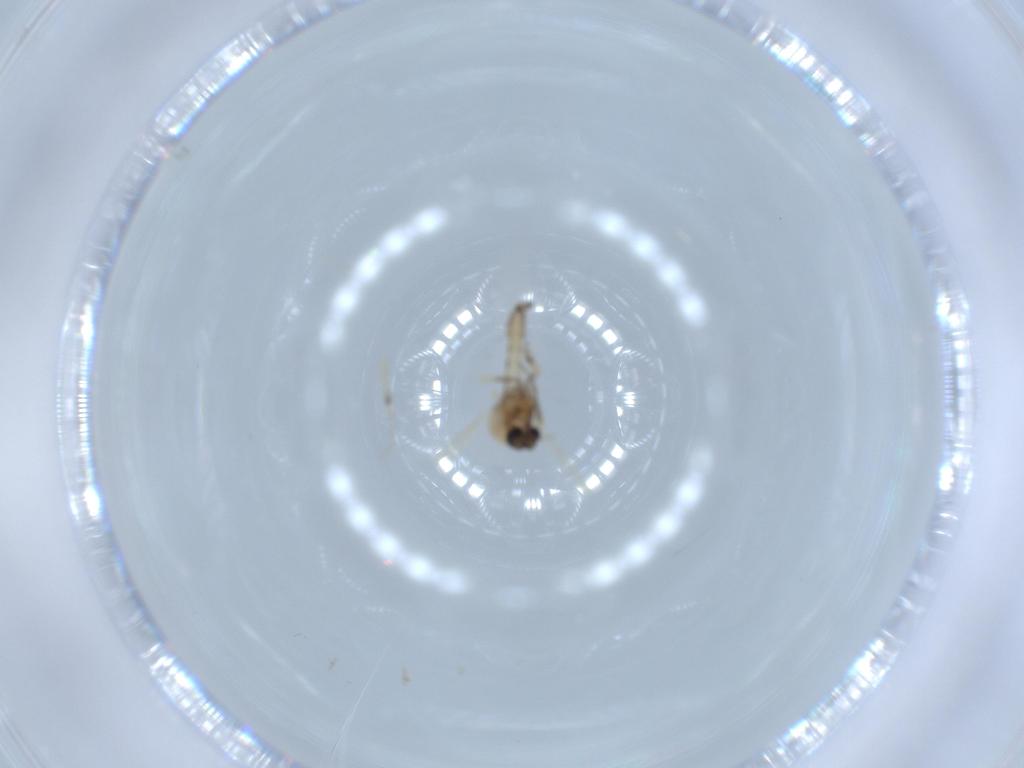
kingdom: Animalia
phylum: Arthropoda
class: Insecta
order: Diptera
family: Ceratopogonidae
